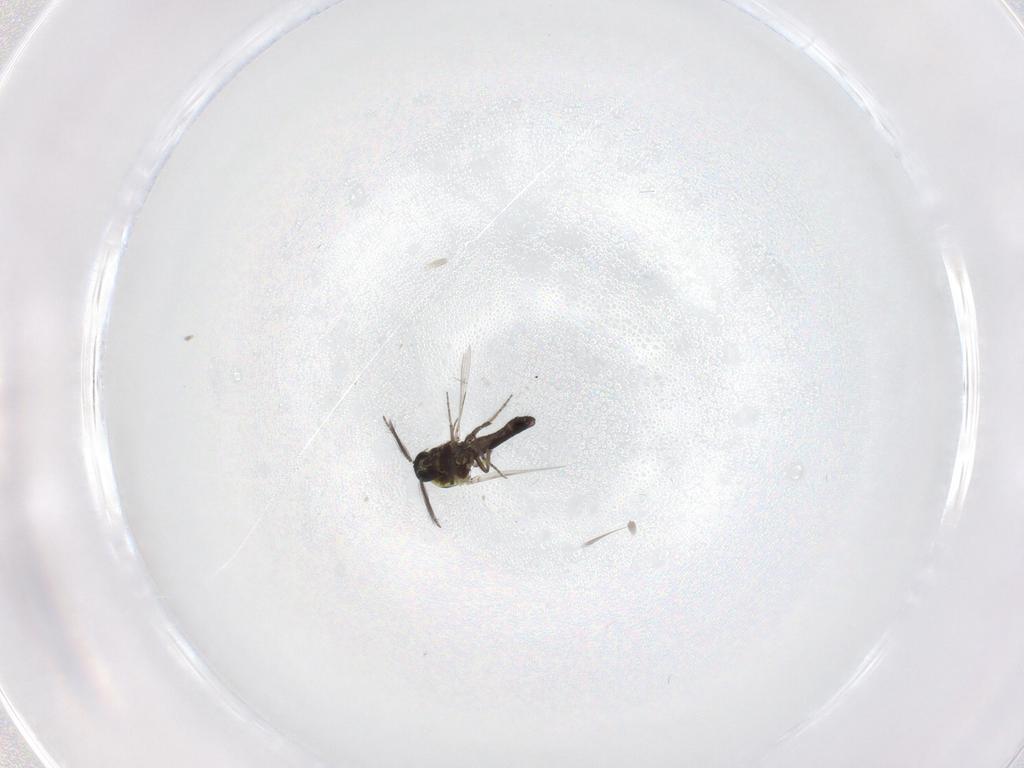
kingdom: Animalia
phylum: Arthropoda
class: Insecta
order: Diptera
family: Ceratopogonidae
